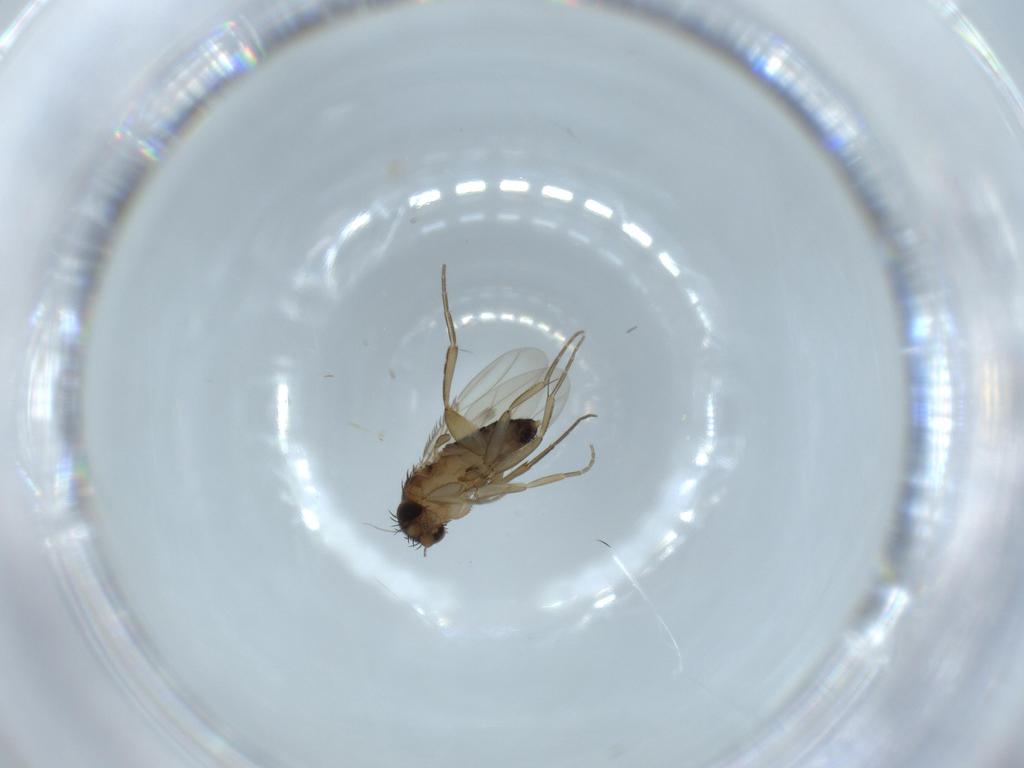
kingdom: Animalia
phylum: Arthropoda
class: Insecta
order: Diptera
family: Phoridae
